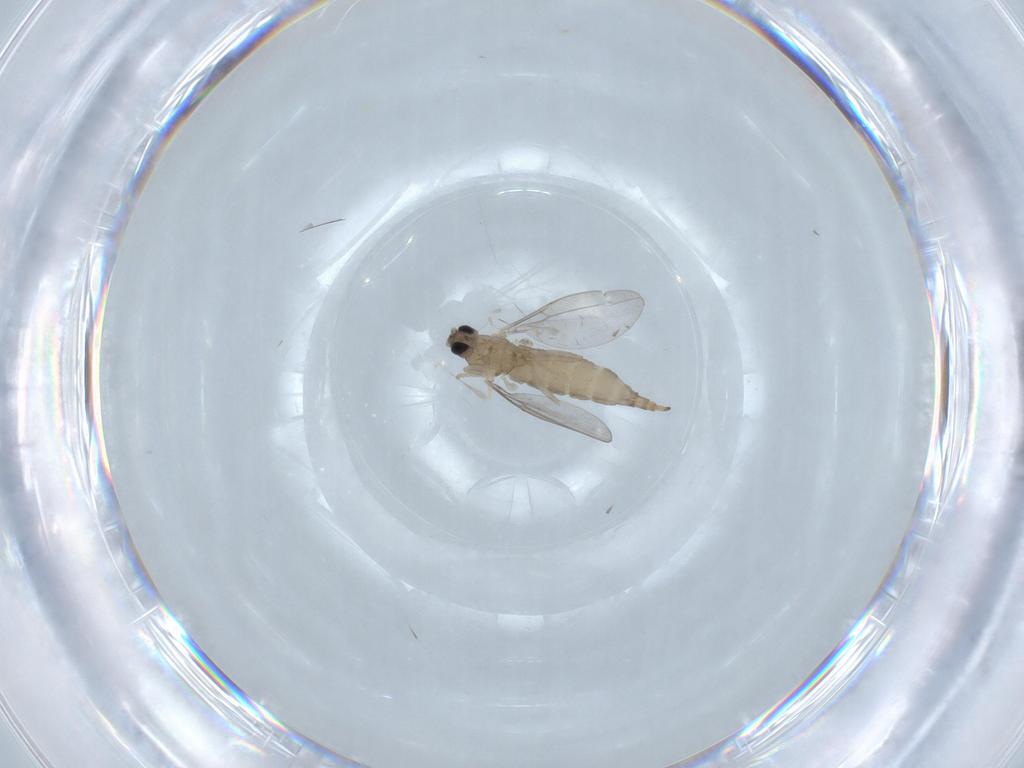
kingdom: Animalia
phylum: Arthropoda
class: Insecta
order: Diptera
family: Cecidomyiidae
